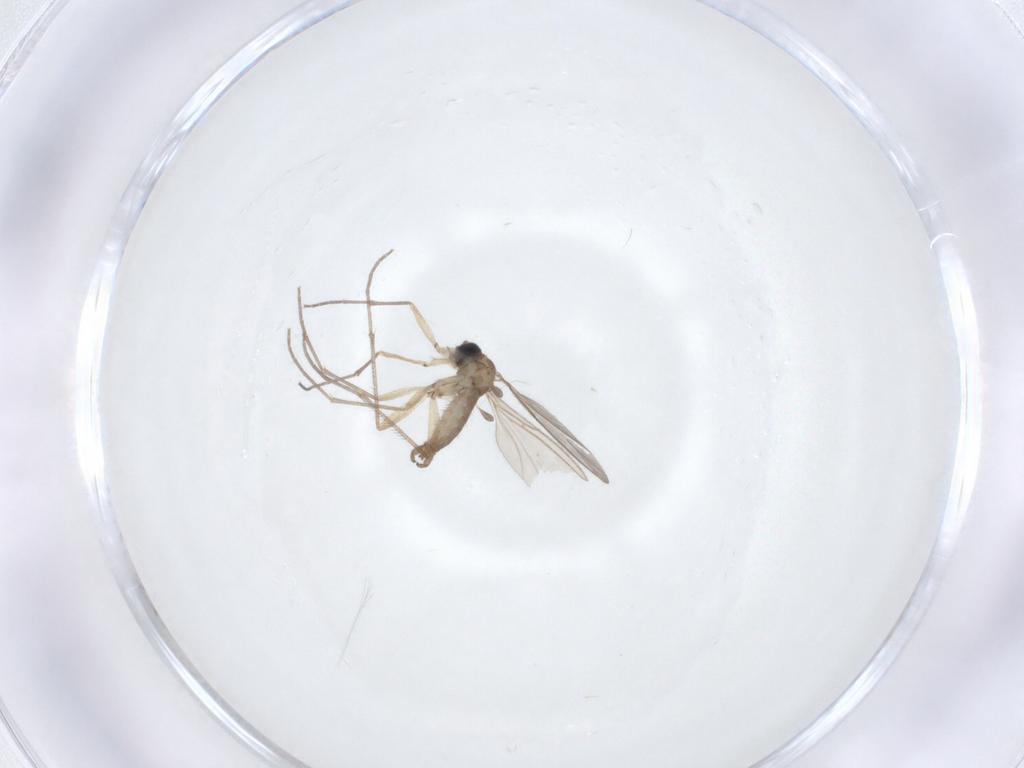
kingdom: Animalia
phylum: Arthropoda
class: Insecta
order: Diptera
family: Sciaridae
